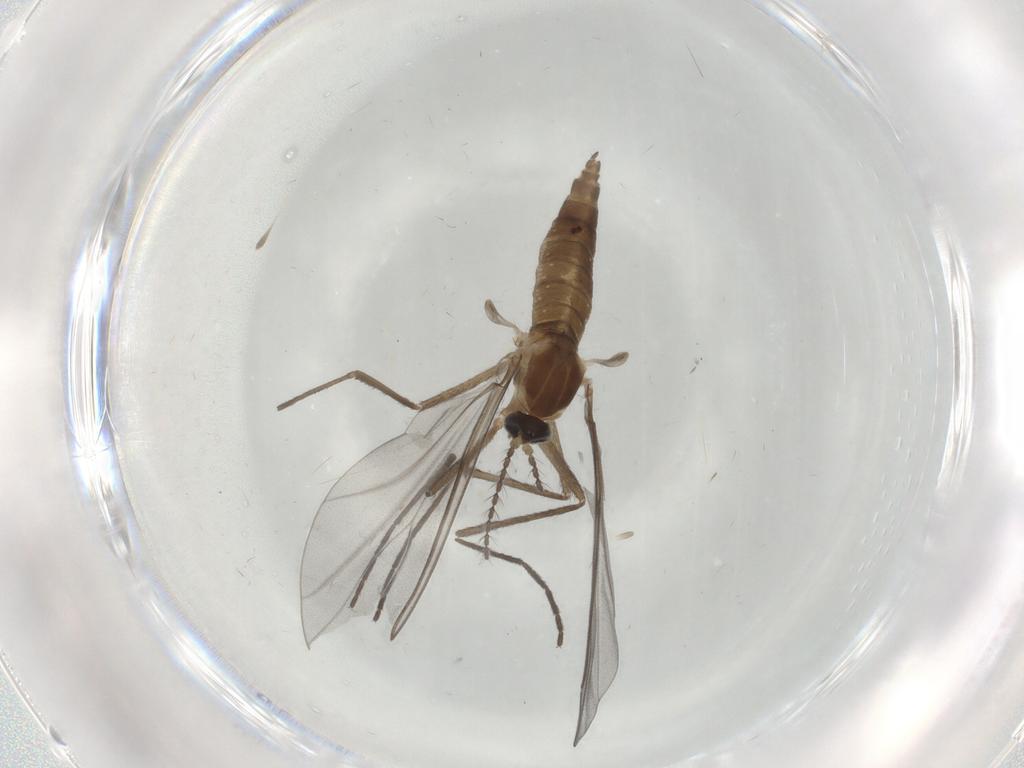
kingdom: Animalia
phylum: Arthropoda
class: Insecta
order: Diptera
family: Cecidomyiidae
